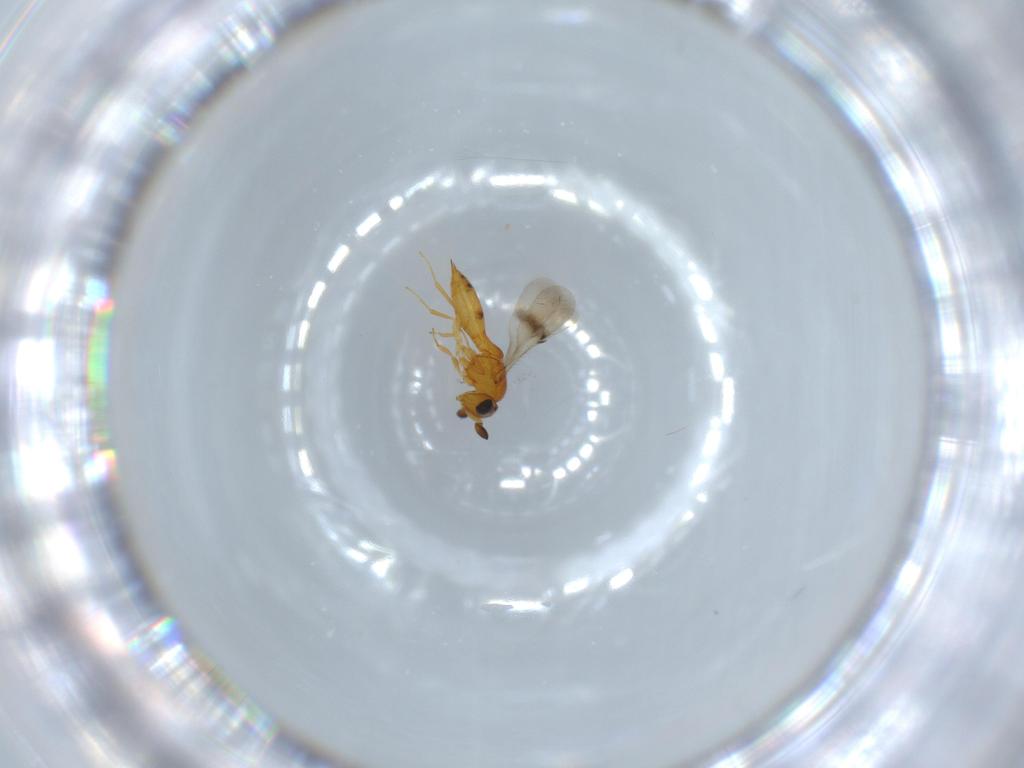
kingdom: Animalia
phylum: Arthropoda
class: Insecta
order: Hymenoptera
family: Scelionidae
